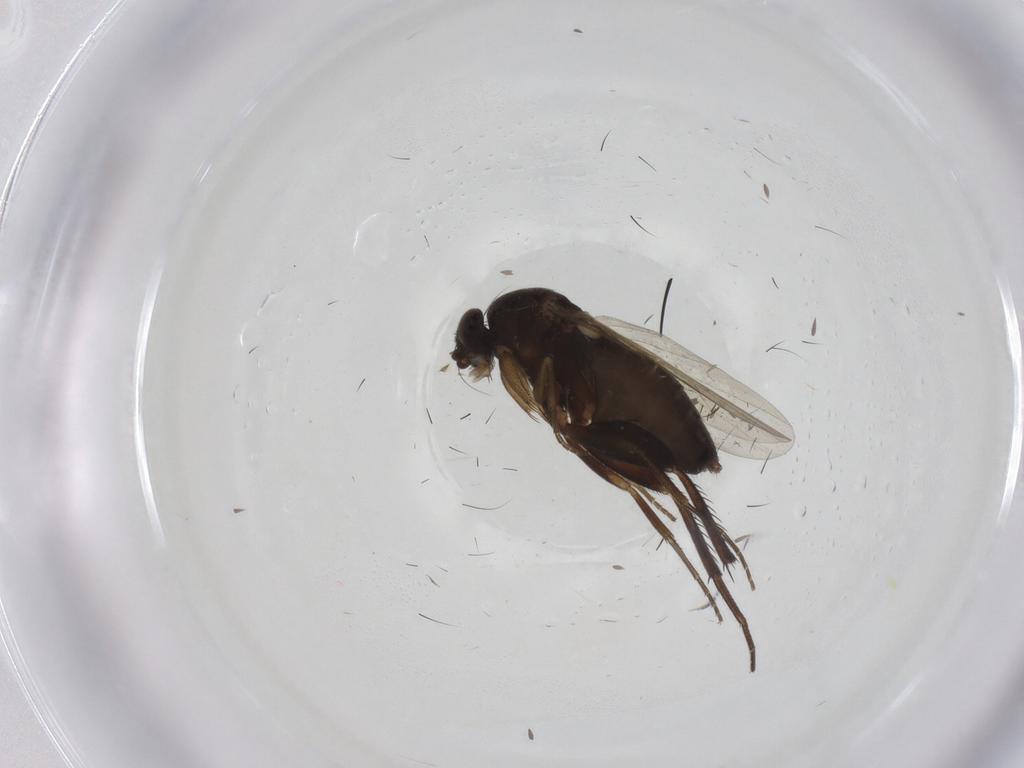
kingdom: Animalia
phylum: Arthropoda
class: Insecta
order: Diptera
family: Phoridae
